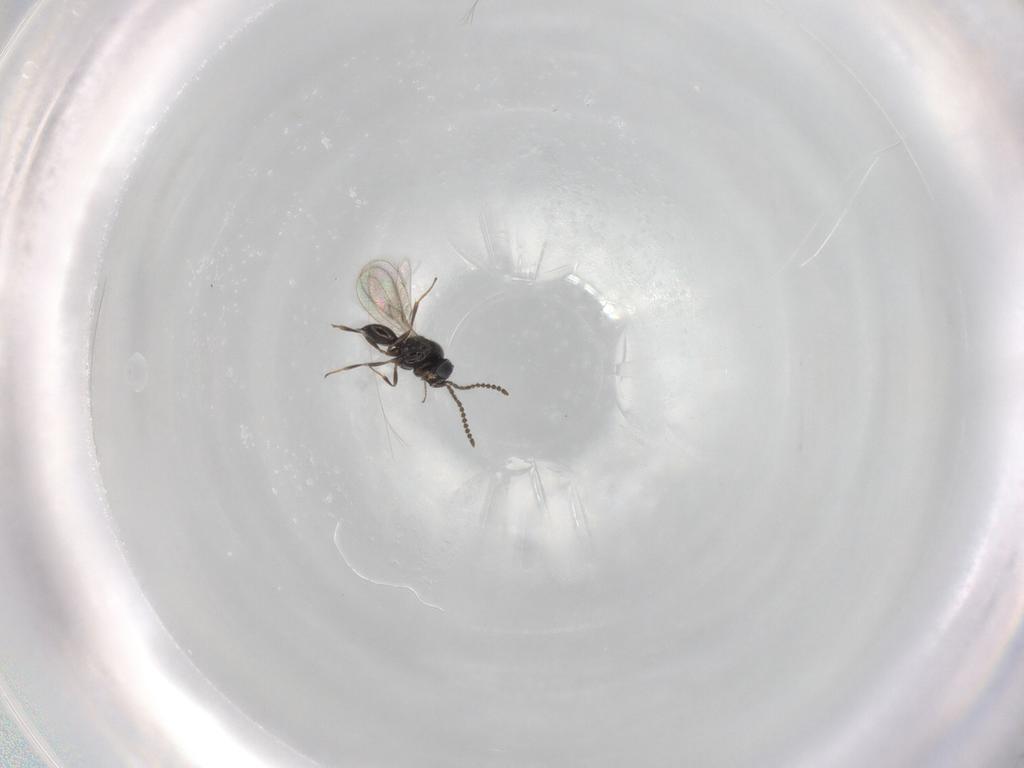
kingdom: Animalia
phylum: Arthropoda
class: Insecta
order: Hymenoptera
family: Scelionidae
